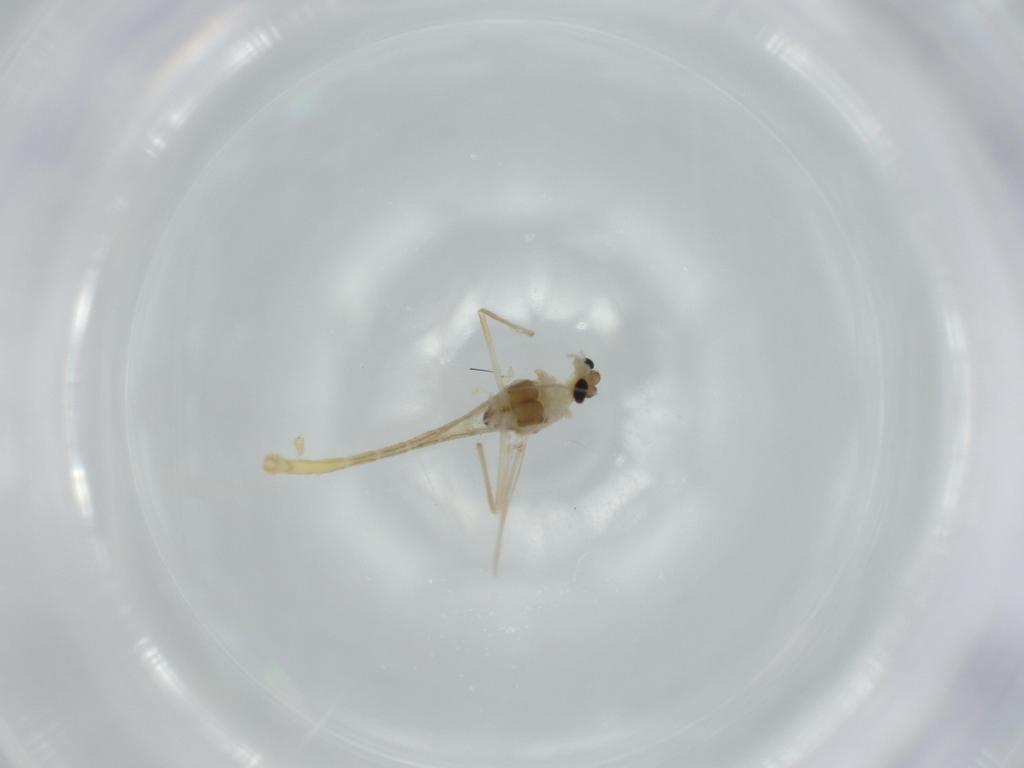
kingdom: Animalia
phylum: Arthropoda
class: Insecta
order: Diptera
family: Chironomidae
